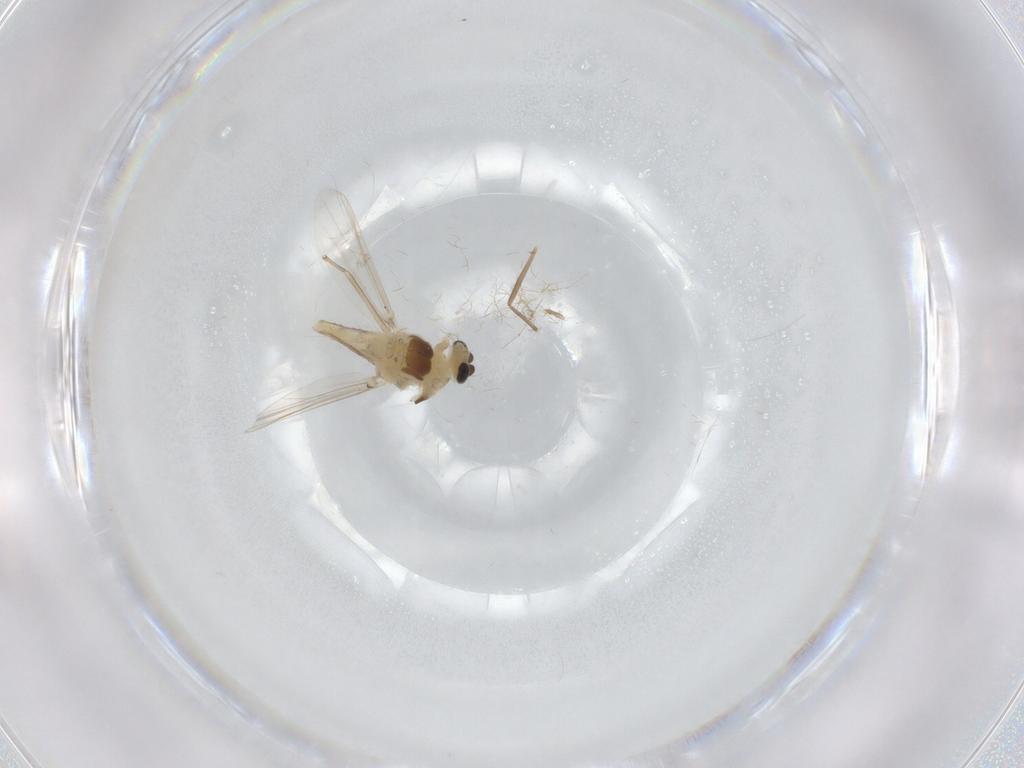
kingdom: Animalia
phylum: Arthropoda
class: Insecta
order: Diptera
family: Chironomidae
